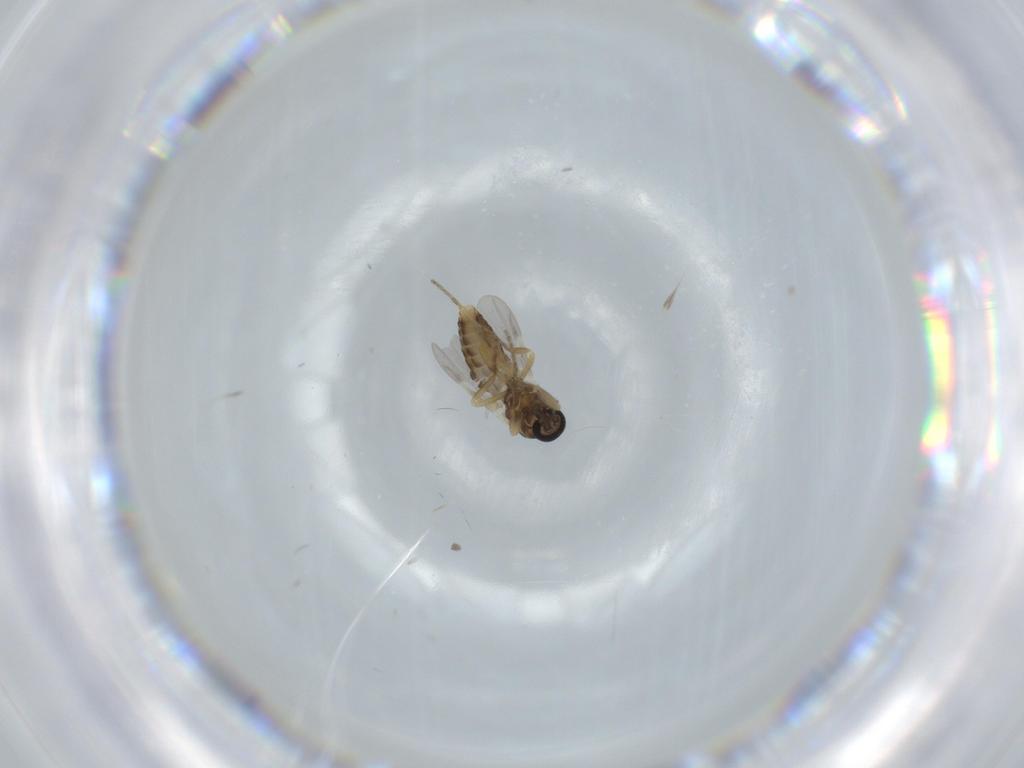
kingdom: Animalia
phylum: Arthropoda
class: Insecta
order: Diptera
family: Ceratopogonidae
